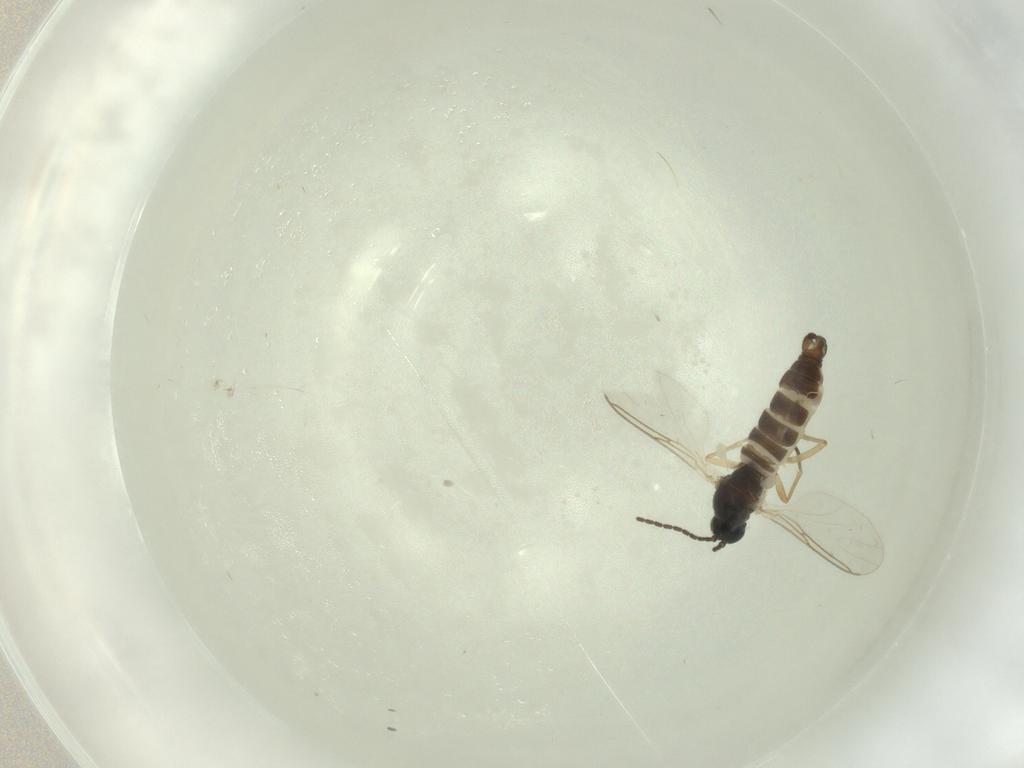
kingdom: Animalia
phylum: Arthropoda
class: Insecta
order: Diptera
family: Sciaridae
